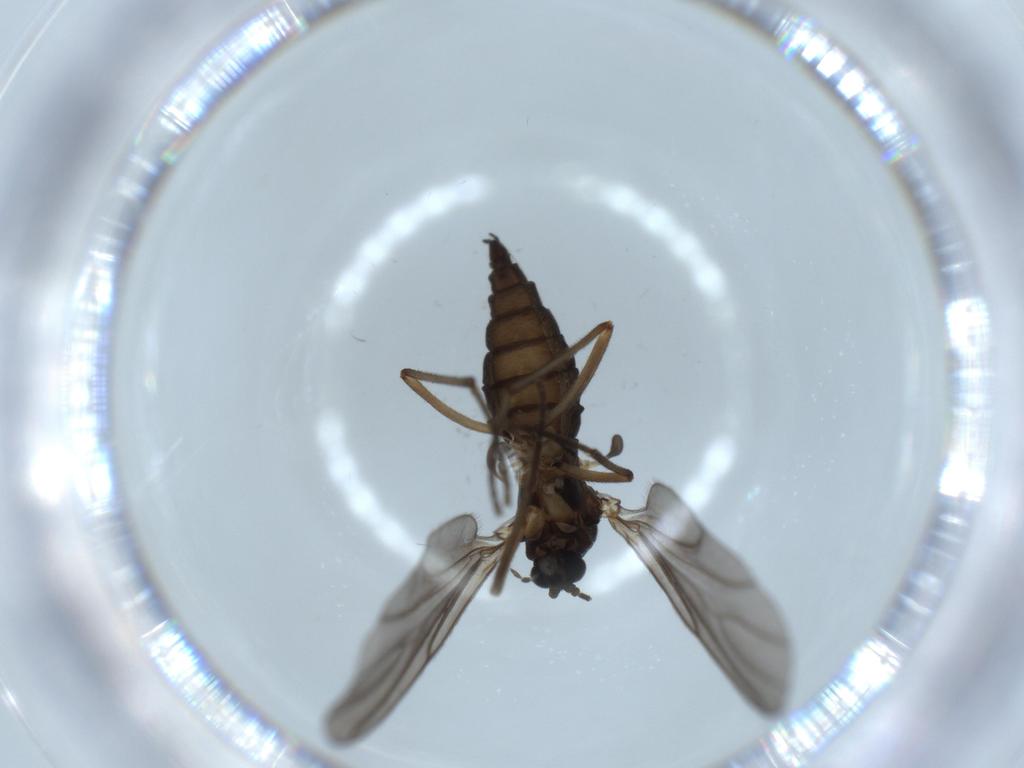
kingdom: Animalia
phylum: Arthropoda
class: Insecta
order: Diptera
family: Sciaridae
